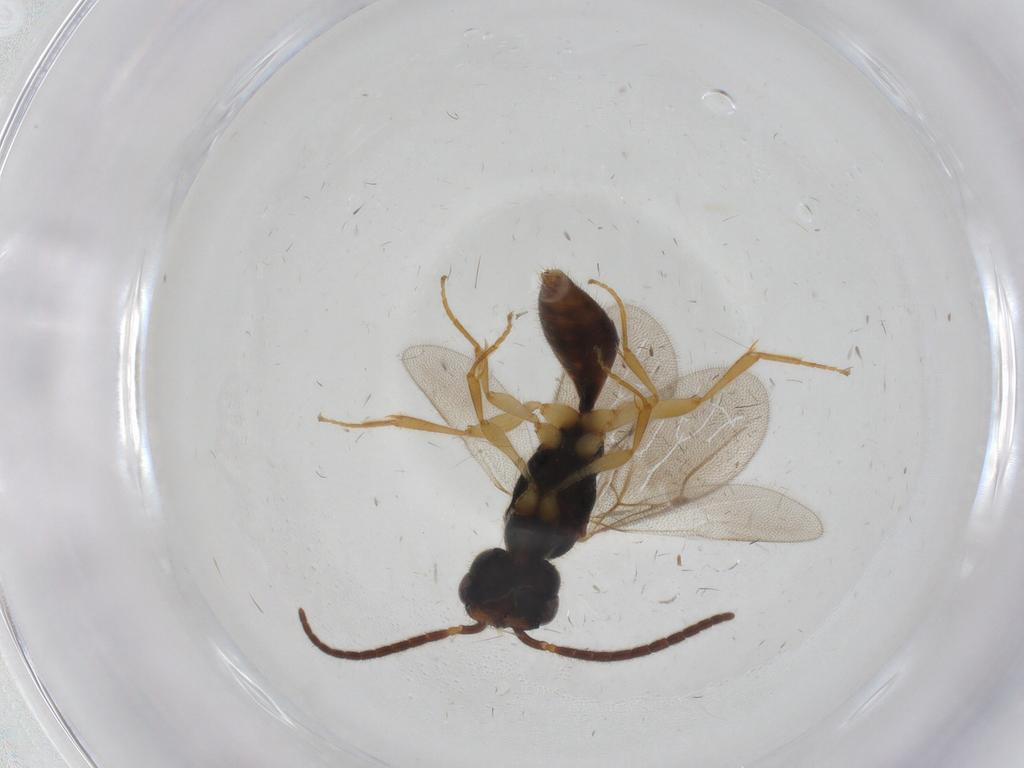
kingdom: Animalia
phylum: Arthropoda
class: Insecta
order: Hymenoptera
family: Bethylidae
